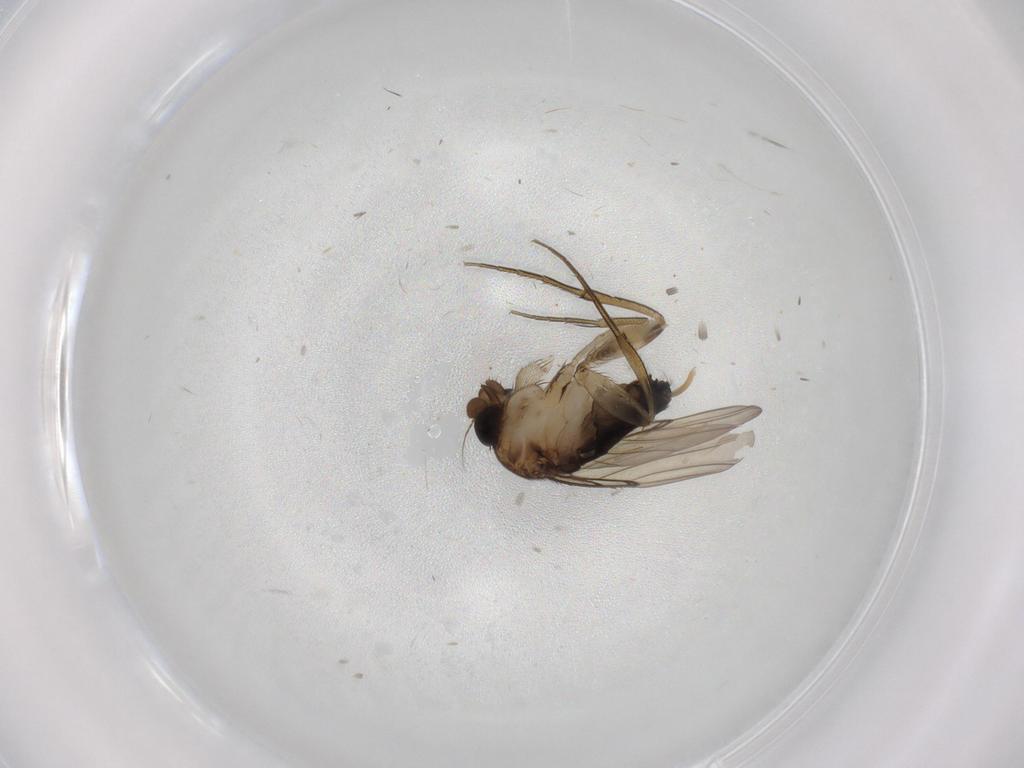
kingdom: Animalia
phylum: Arthropoda
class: Insecta
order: Diptera
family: Phoridae
